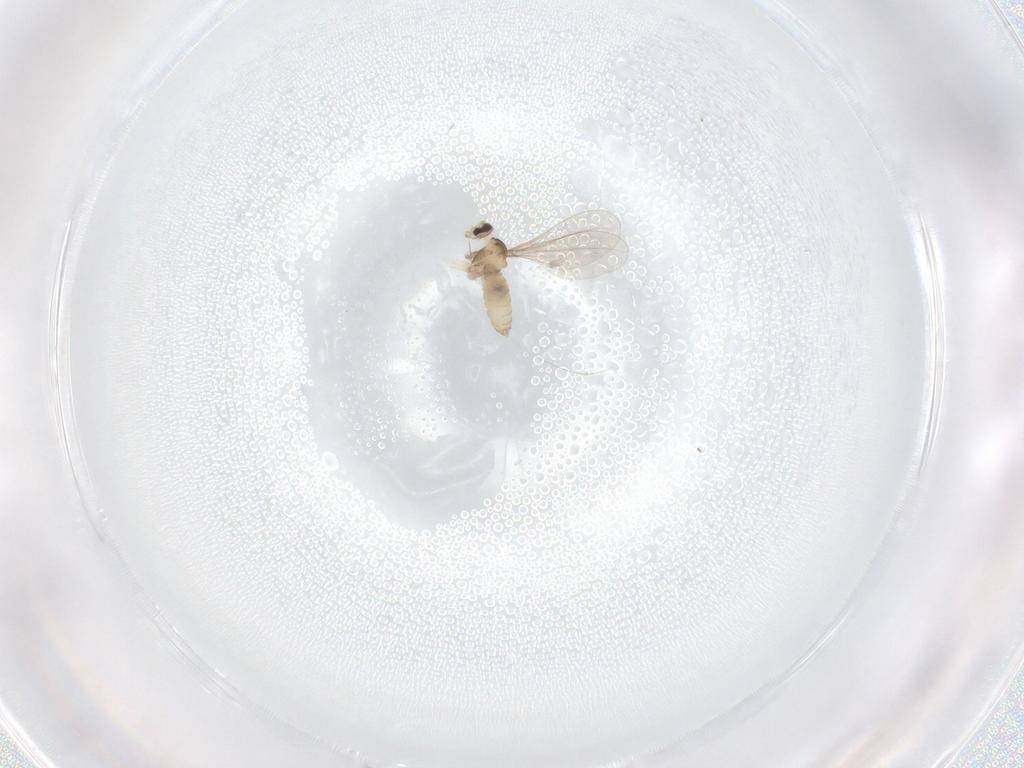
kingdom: Animalia
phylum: Arthropoda
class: Insecta
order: Diptera
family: Cecidomyiidae
